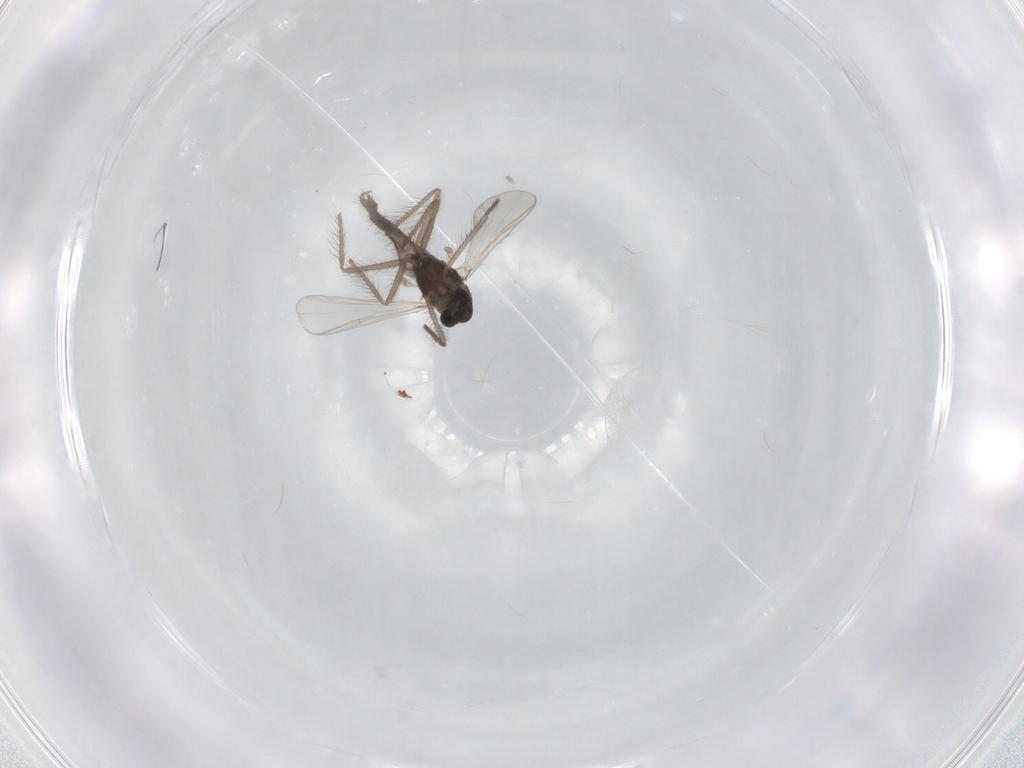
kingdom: Animalia
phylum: Arthropoda
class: Insecta
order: Diptera
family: Chironomidae
